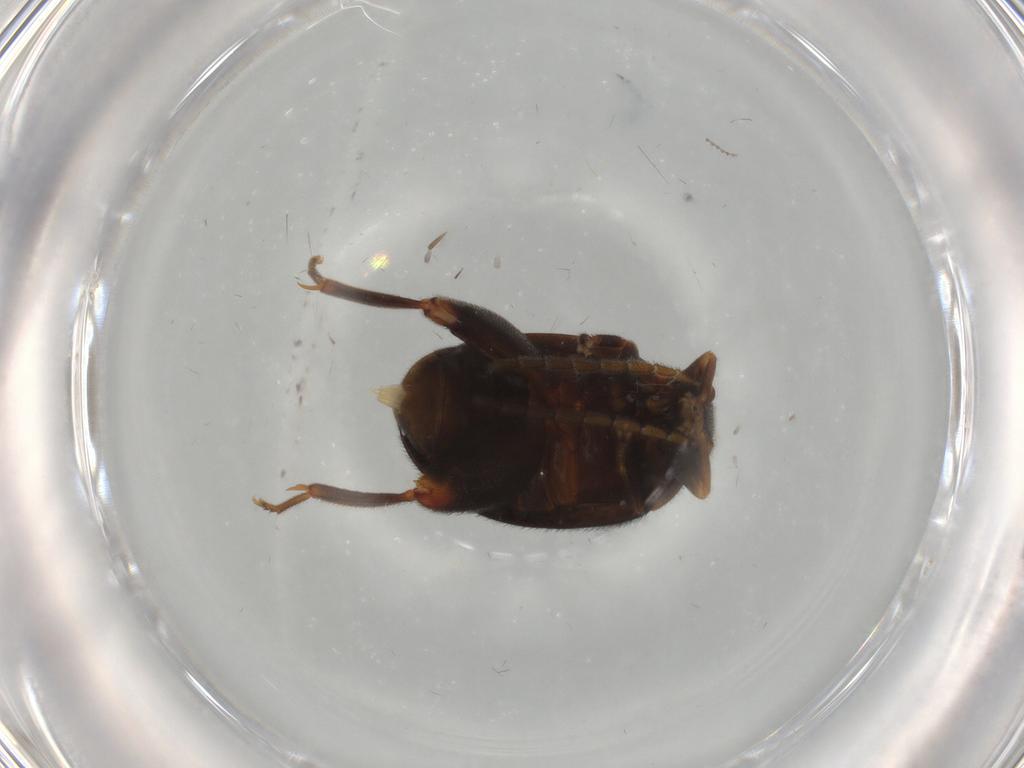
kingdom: Animalia
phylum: Arthropoda
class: Insecta
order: Coleoptera
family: Scirtidae
